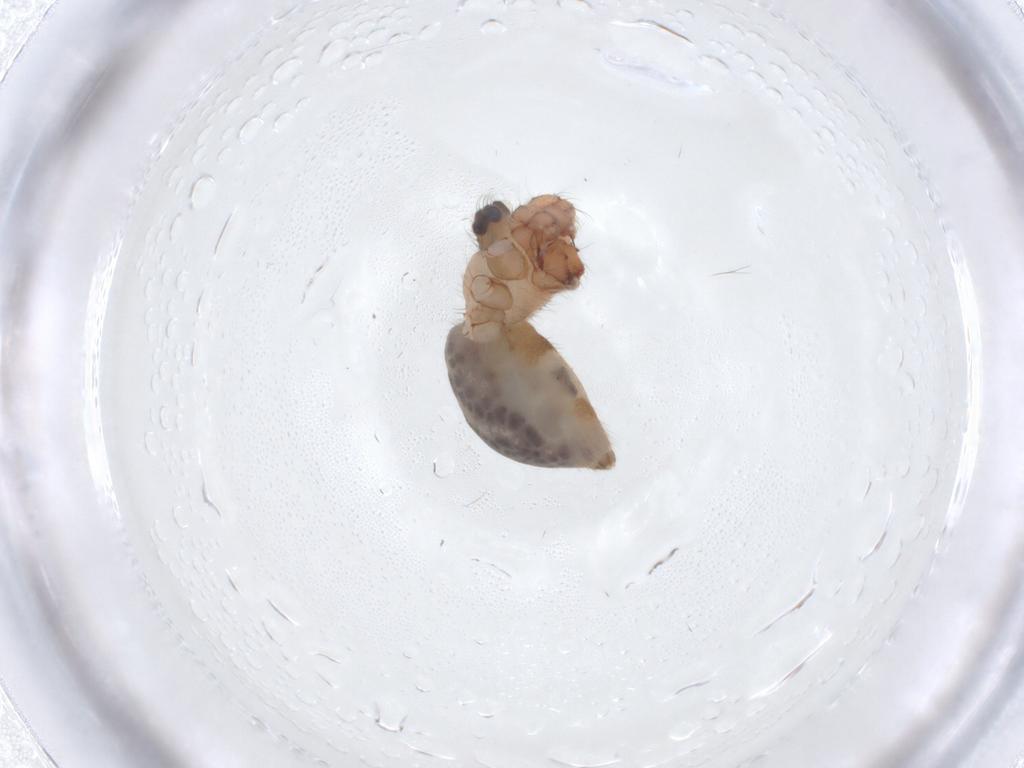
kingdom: Animalia
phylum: Arthropoda
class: Arachnida
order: Araneae
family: Pholcidae
